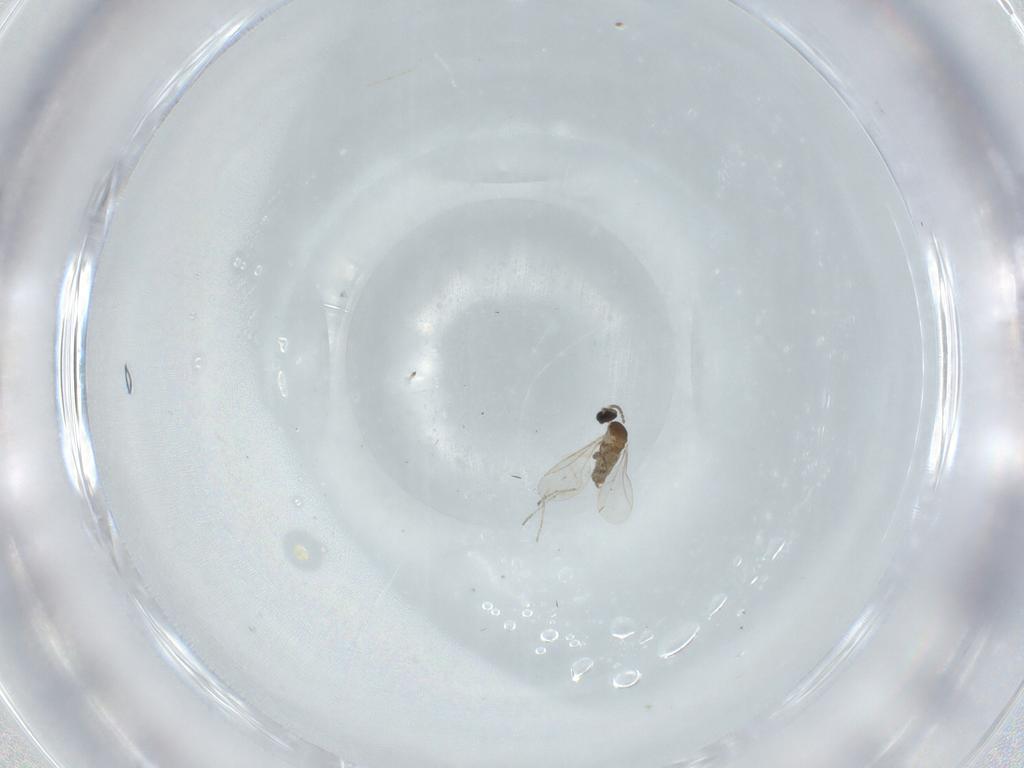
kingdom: Animalia
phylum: Arthropoda
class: Insecta
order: Diptera
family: Cecidomyiidae
